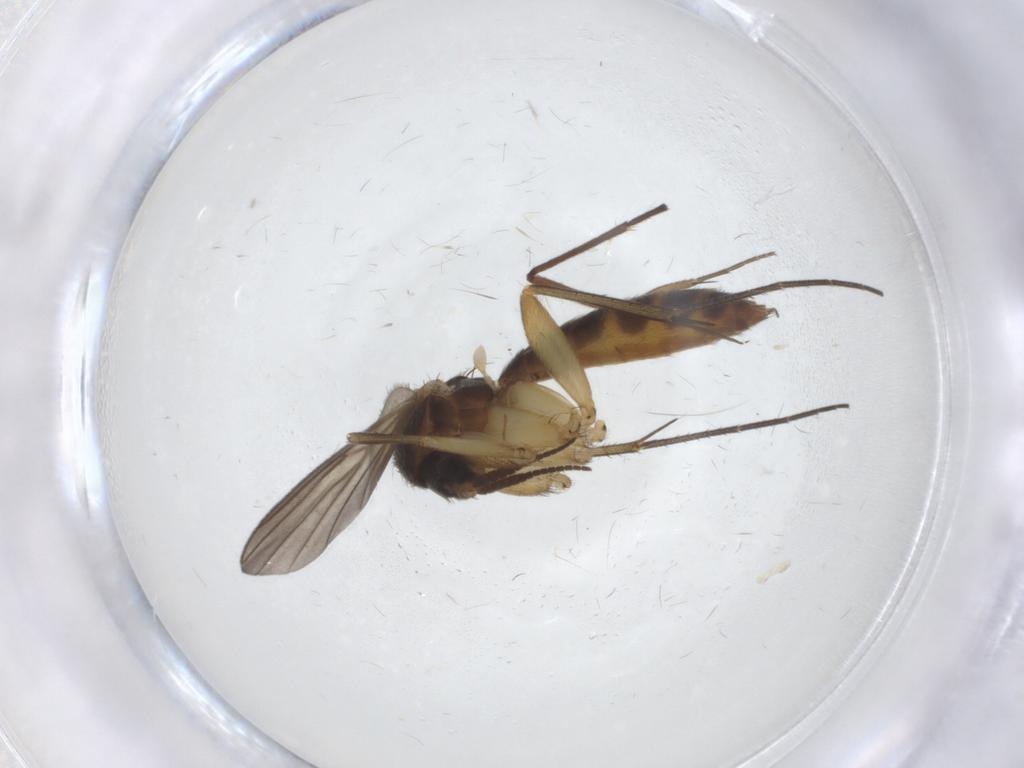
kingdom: Animalia
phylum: Arthropoda
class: Insecta
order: Diptera
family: Mycetophilidae
